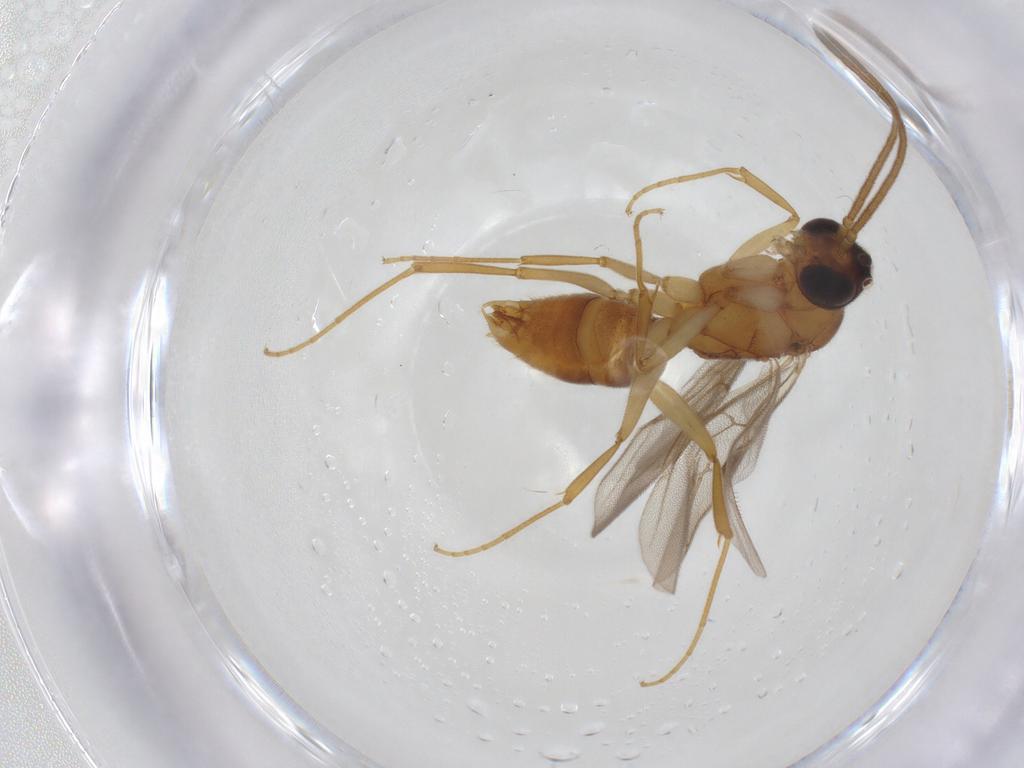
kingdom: Animalia
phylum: Arthropoda
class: Insecta
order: Hymenoptera
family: Formicidae
